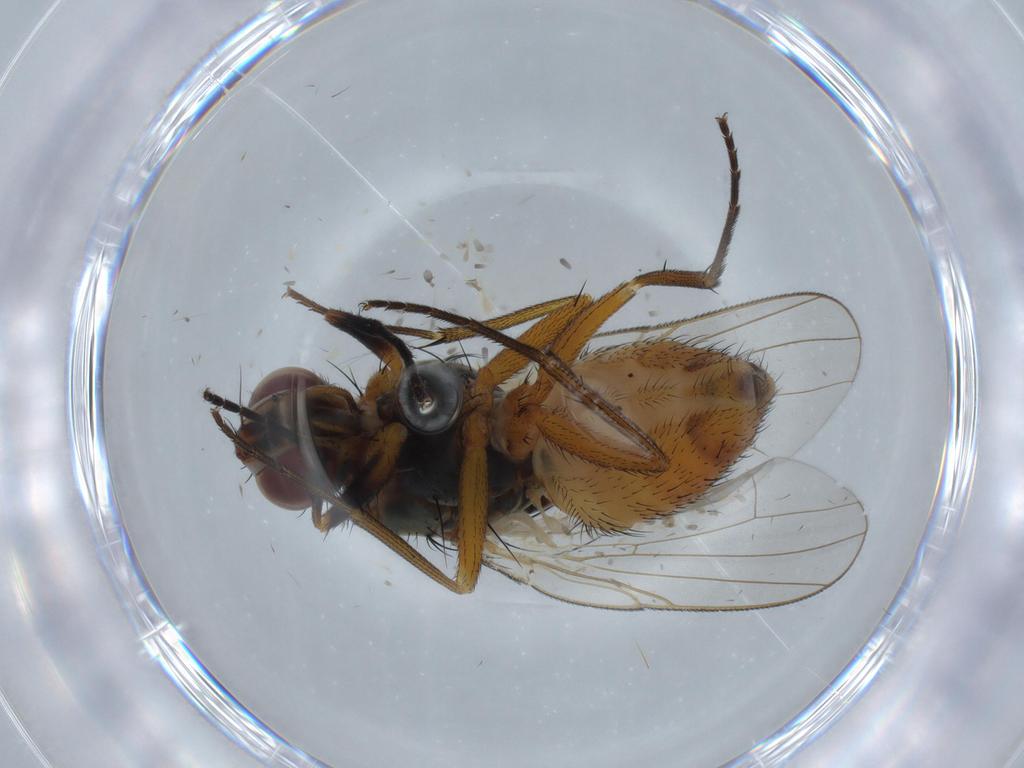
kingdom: Animalia
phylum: Arthropoda
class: Insecta
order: Diptera
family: Muscidae
